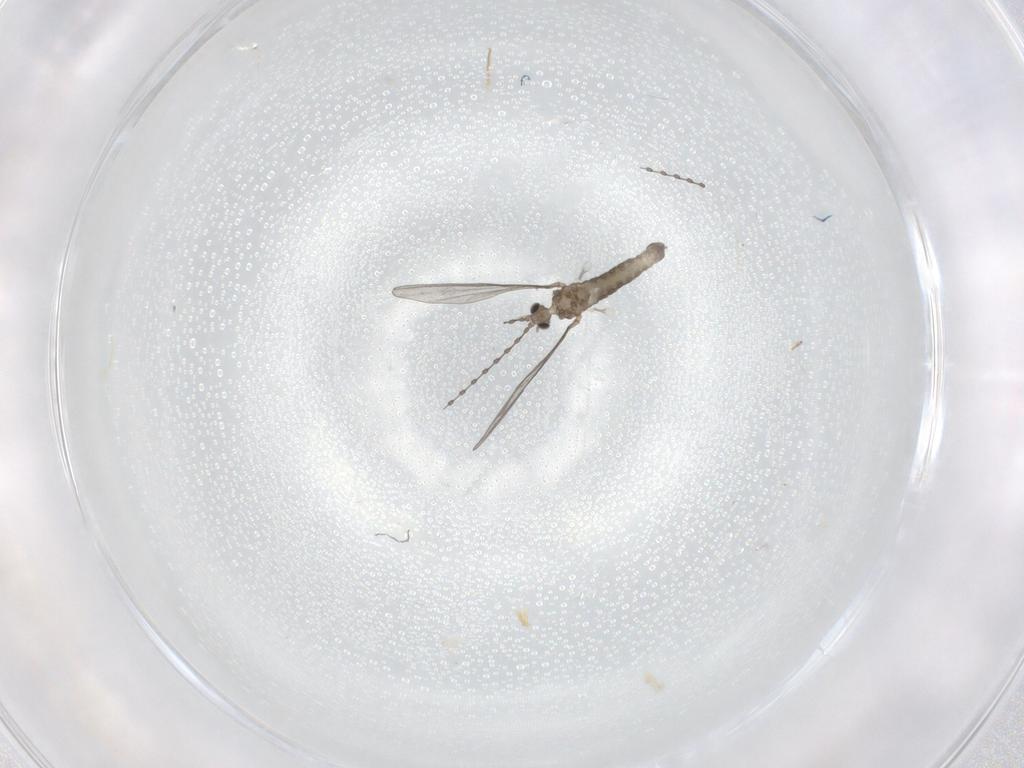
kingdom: Animalia
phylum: Arthropoda
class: Insecta
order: Diptera
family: Cecidomyiidae
